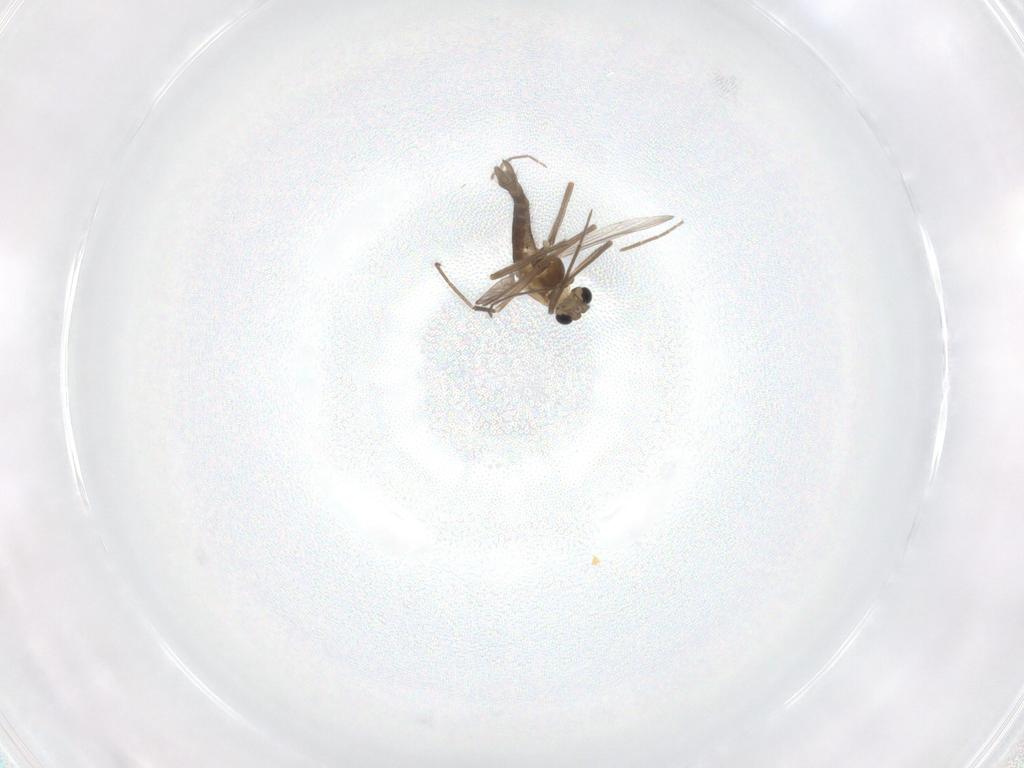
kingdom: Animalia
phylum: Arthropoda
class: Insecta
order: Diptera
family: Chironomidae
